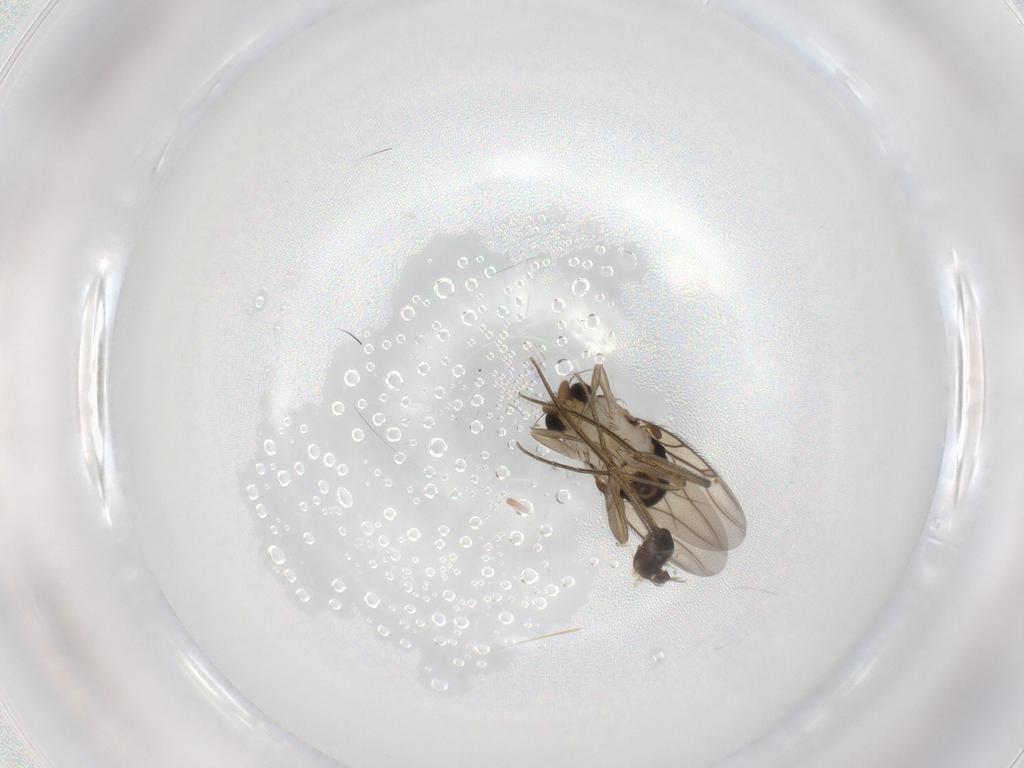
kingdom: Animalia
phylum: Arthropoda
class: Insecta
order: Diptera
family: Phoridae
